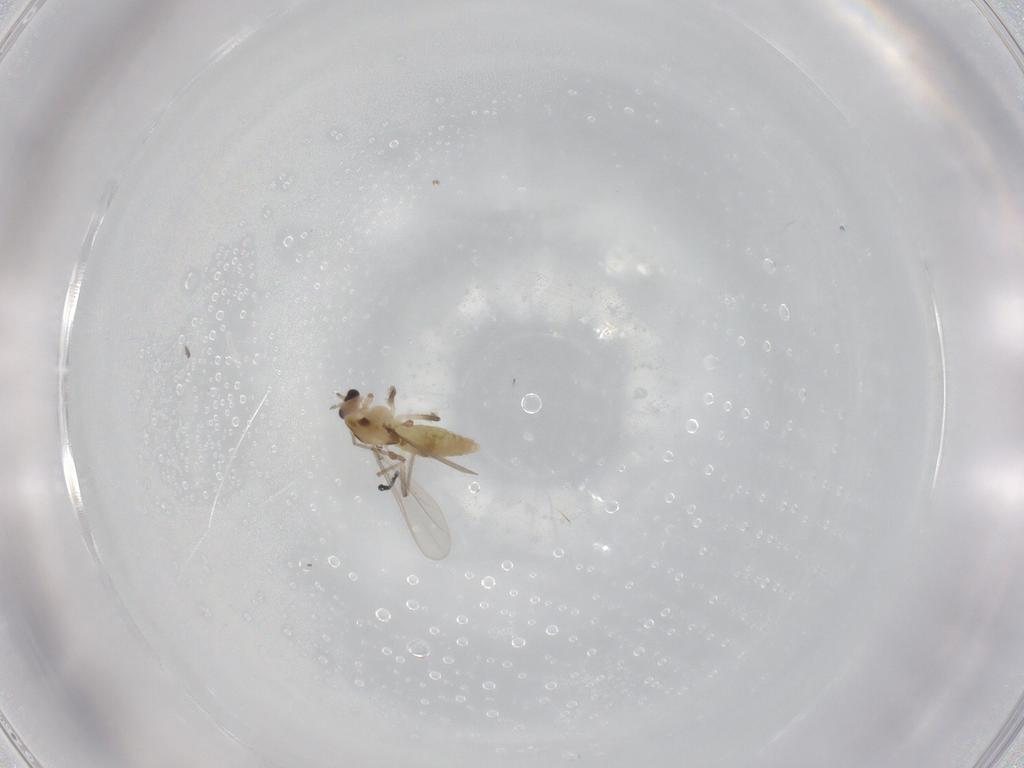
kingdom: Animalia
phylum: Arthropoda
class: Insecta
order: Diptera
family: Chironomidae
